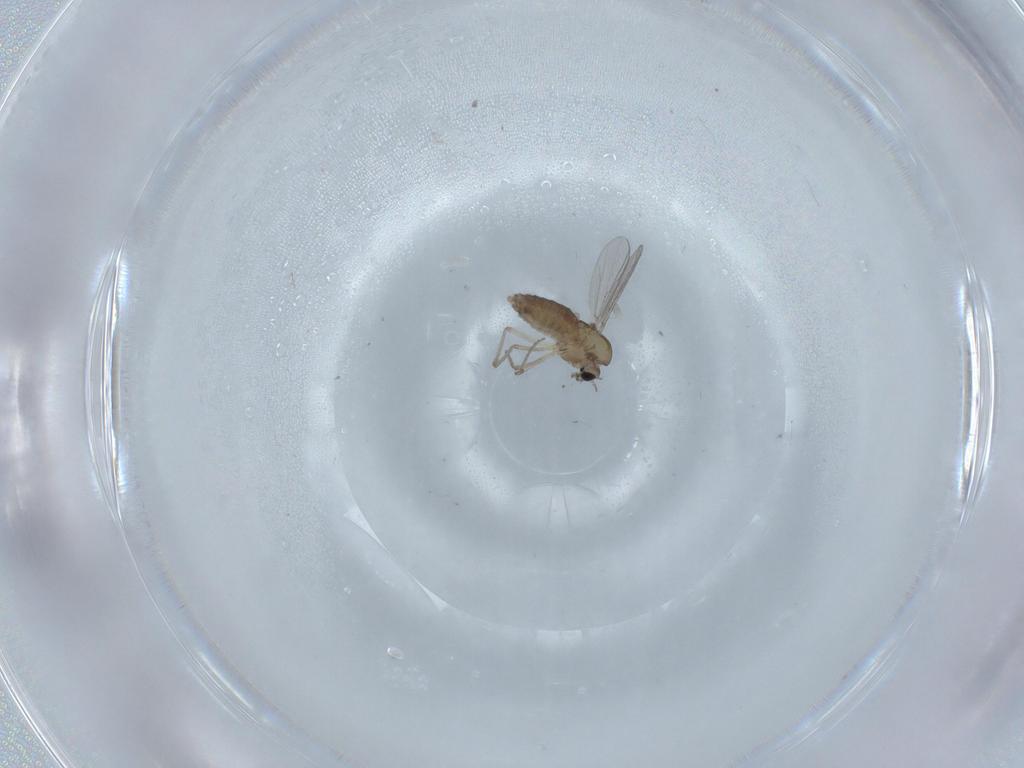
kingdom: Animalia
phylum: Arthropoda
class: Insecta
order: Diptera
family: Chironomidae
